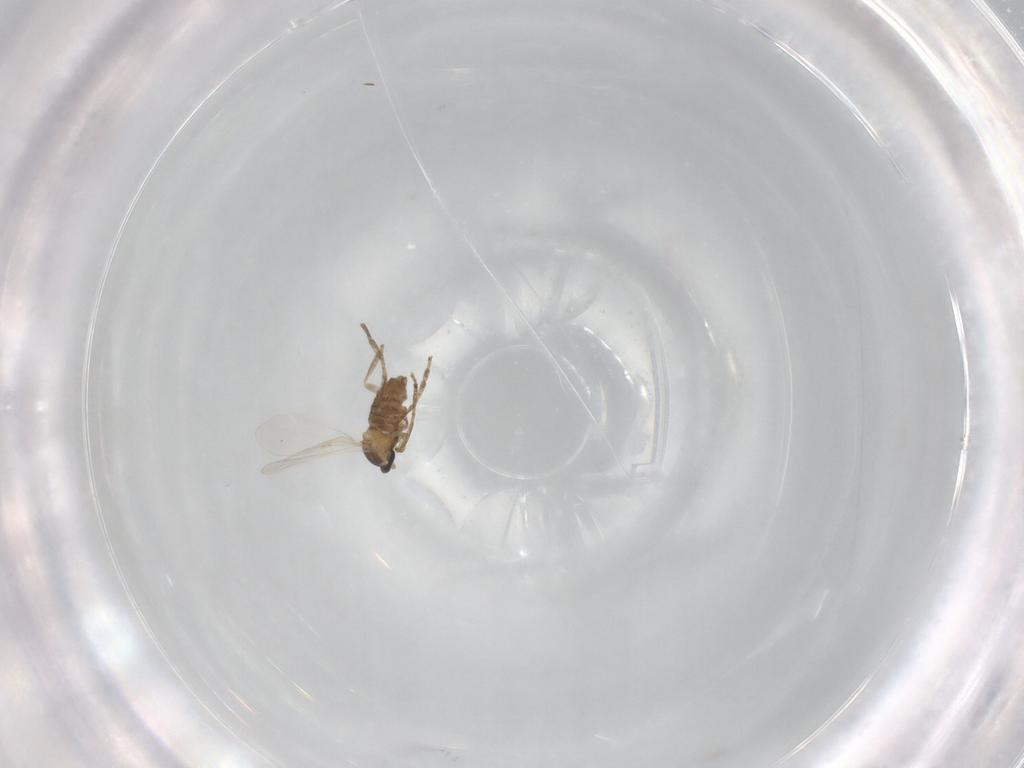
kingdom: Animalia
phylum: Arthropoda
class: Insecta
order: Diptera
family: Cecidomyiidae
